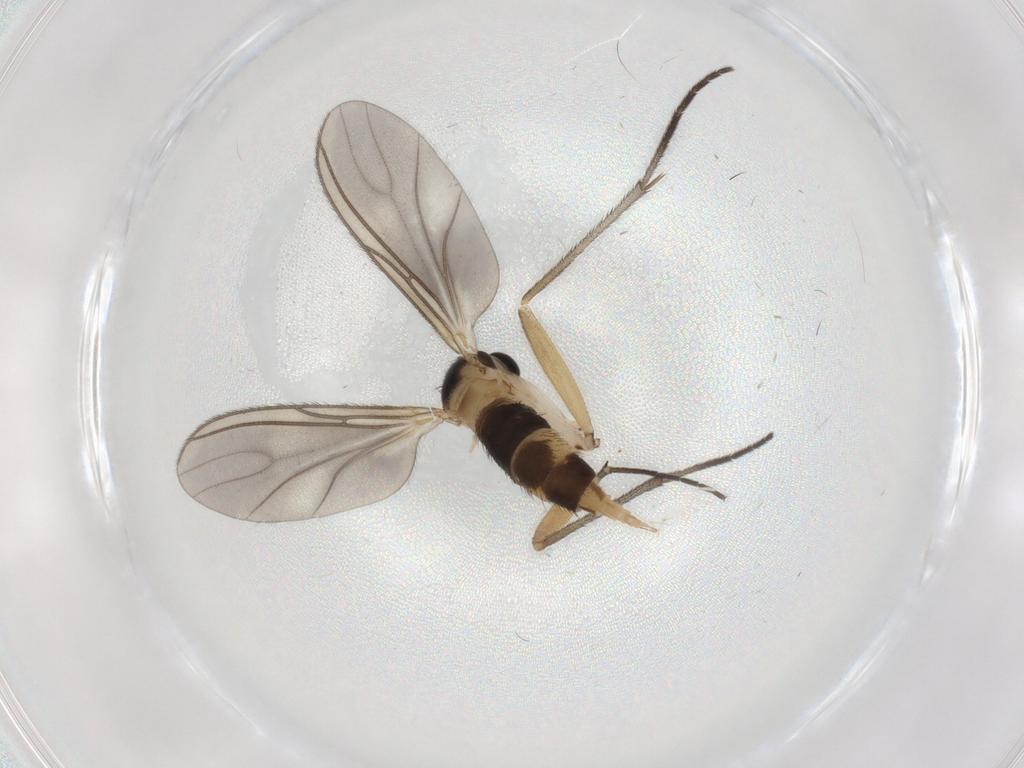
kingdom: Animalia
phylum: Arthropoda
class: Insecta
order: Diptera
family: Sciaridae
